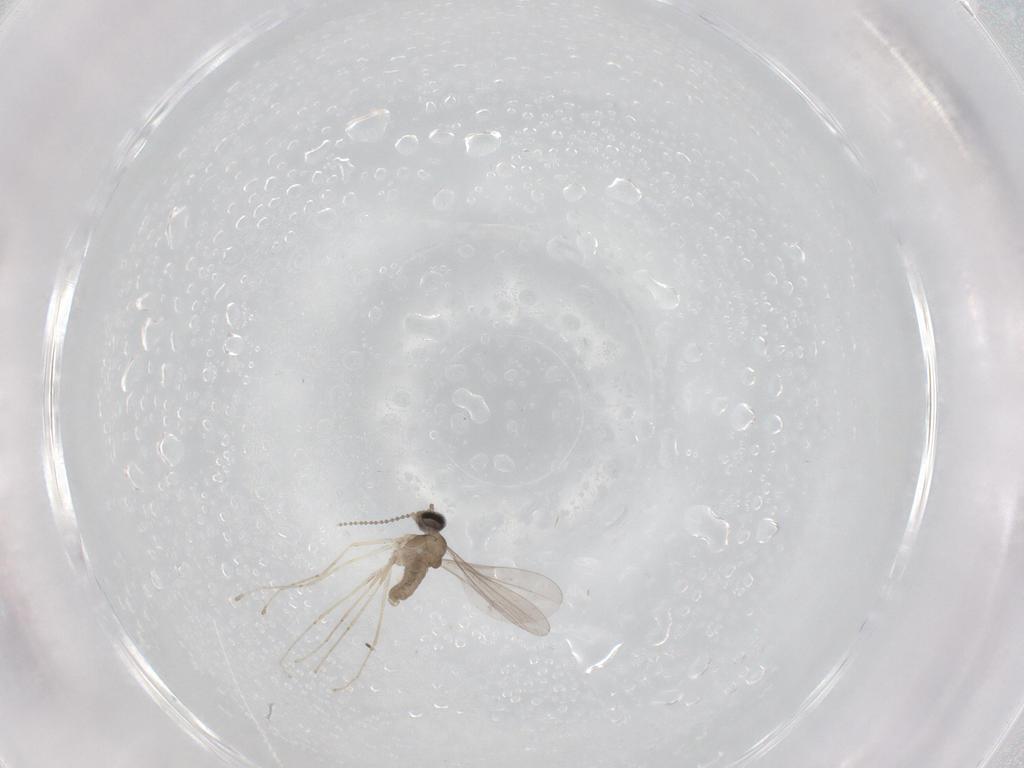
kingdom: Animalia
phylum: Arthropoda
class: Insecta
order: Diptera
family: Cecidomyiidae
